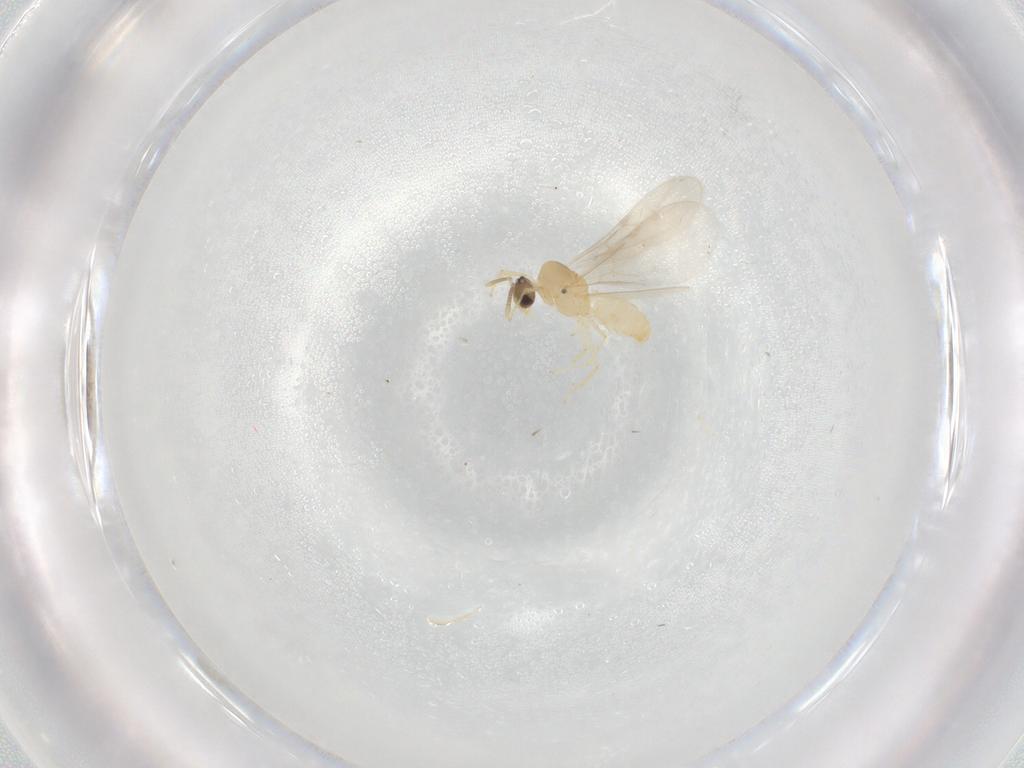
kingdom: Animalia
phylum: Arthropoda
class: Insecta
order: Hymenoptera
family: Formicidae
